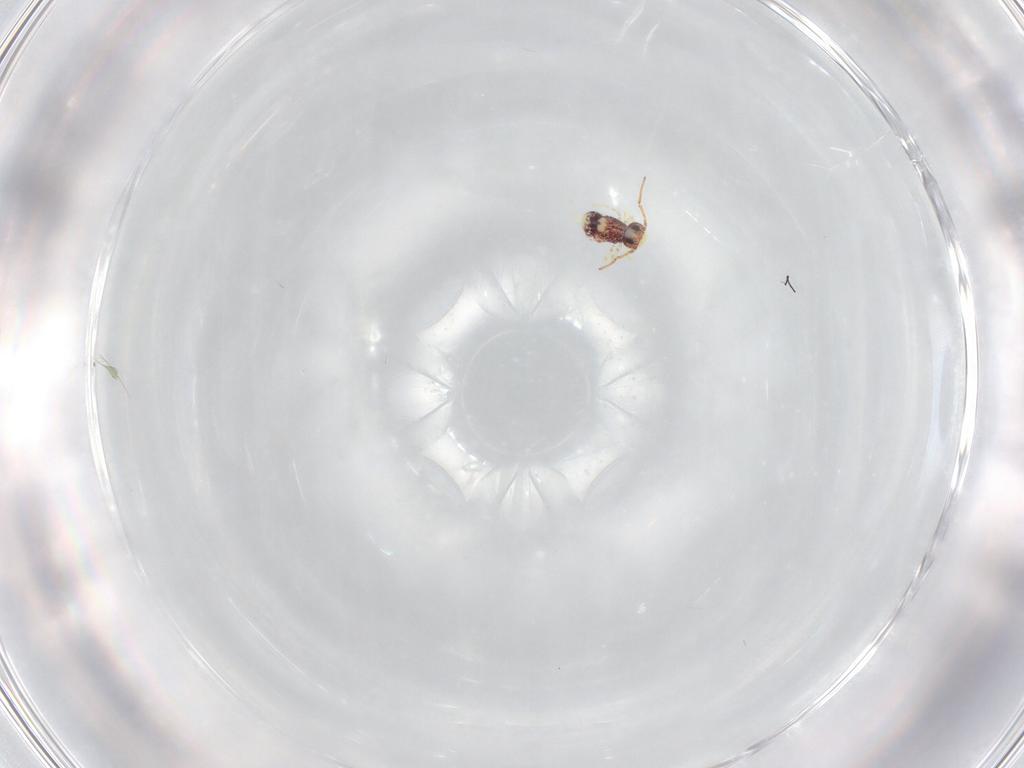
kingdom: Animalia
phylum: Arthropoda
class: Collembola
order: Symphypleona
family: Bourletiellidae
